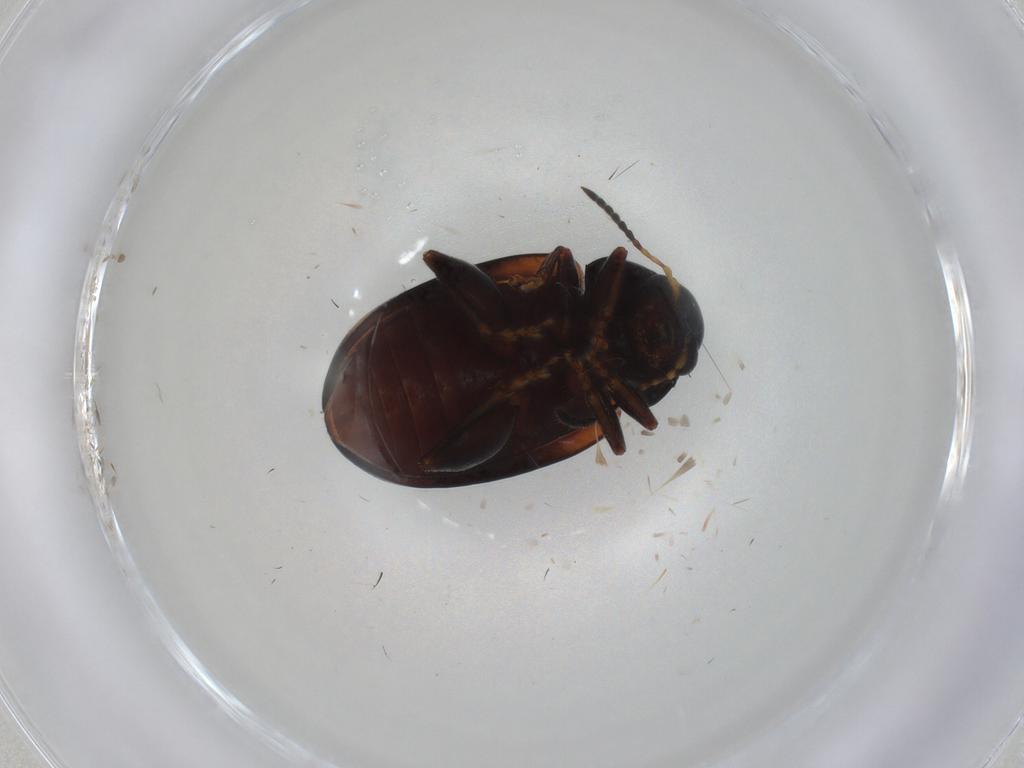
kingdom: Animalia
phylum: Arthropoda
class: Insecta
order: Coleoptera
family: Chrysomelidae
